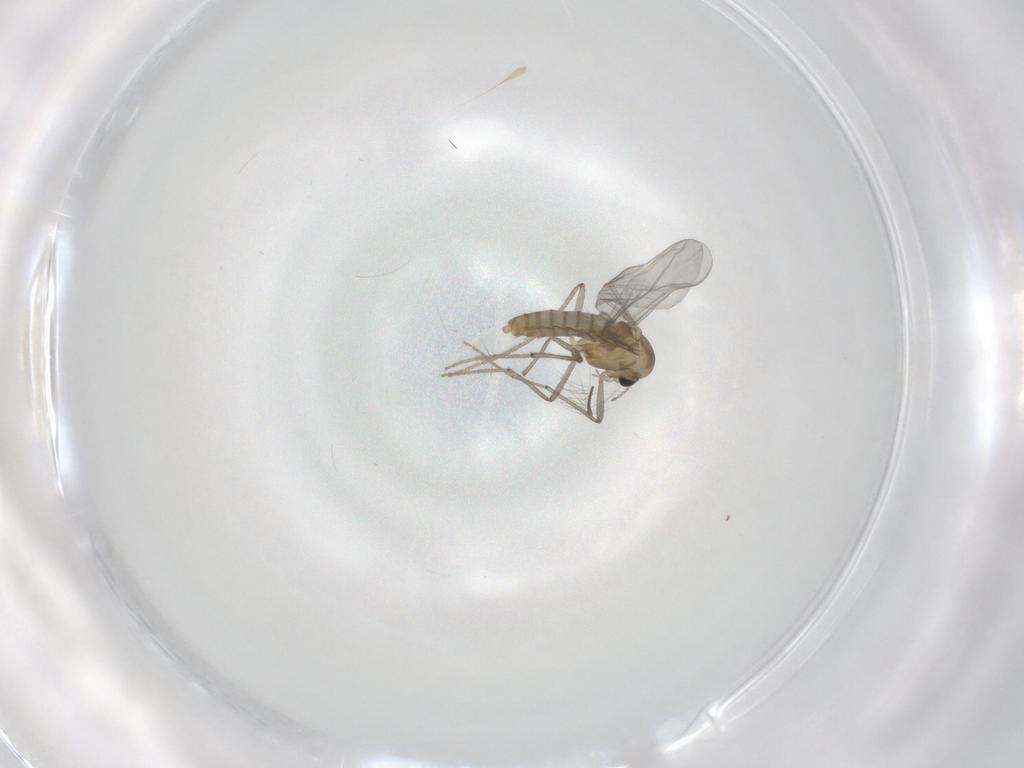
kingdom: Animalia
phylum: Arthropoda
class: Insecta
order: Diptera
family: Chironomidae
